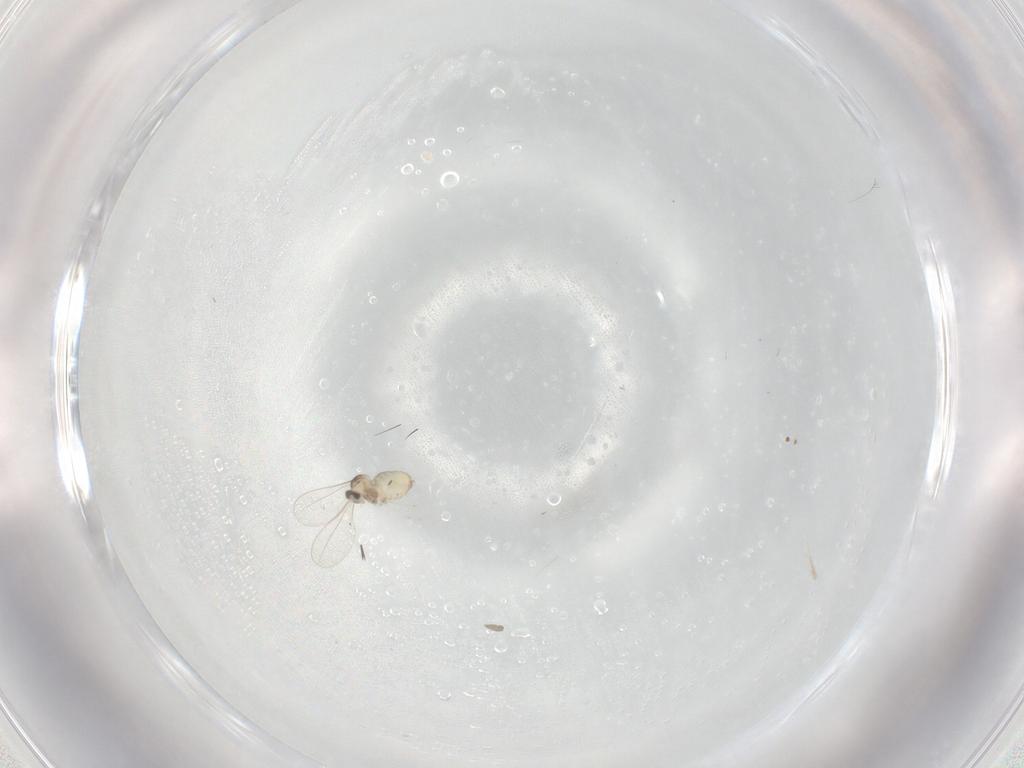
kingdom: Animalia
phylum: Arthropoda
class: Insecta
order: Diptera
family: Cecidomyiidae
